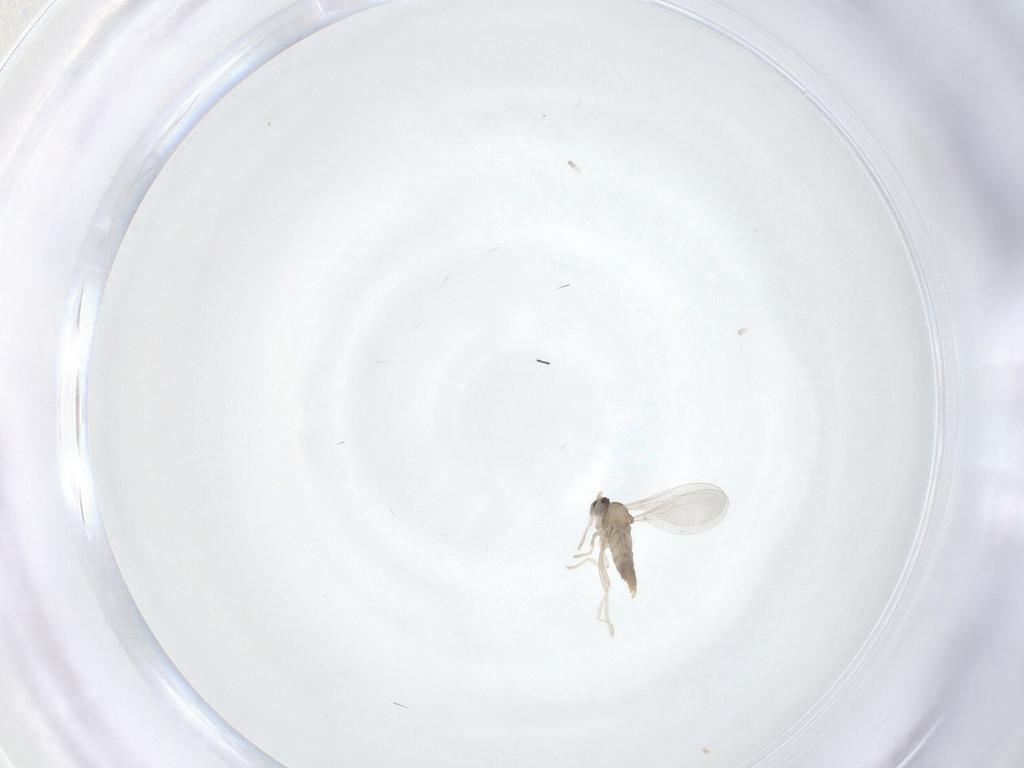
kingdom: Animalia
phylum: Arthropoda
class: Insecta
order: Diptera
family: Cecidomyiidae
